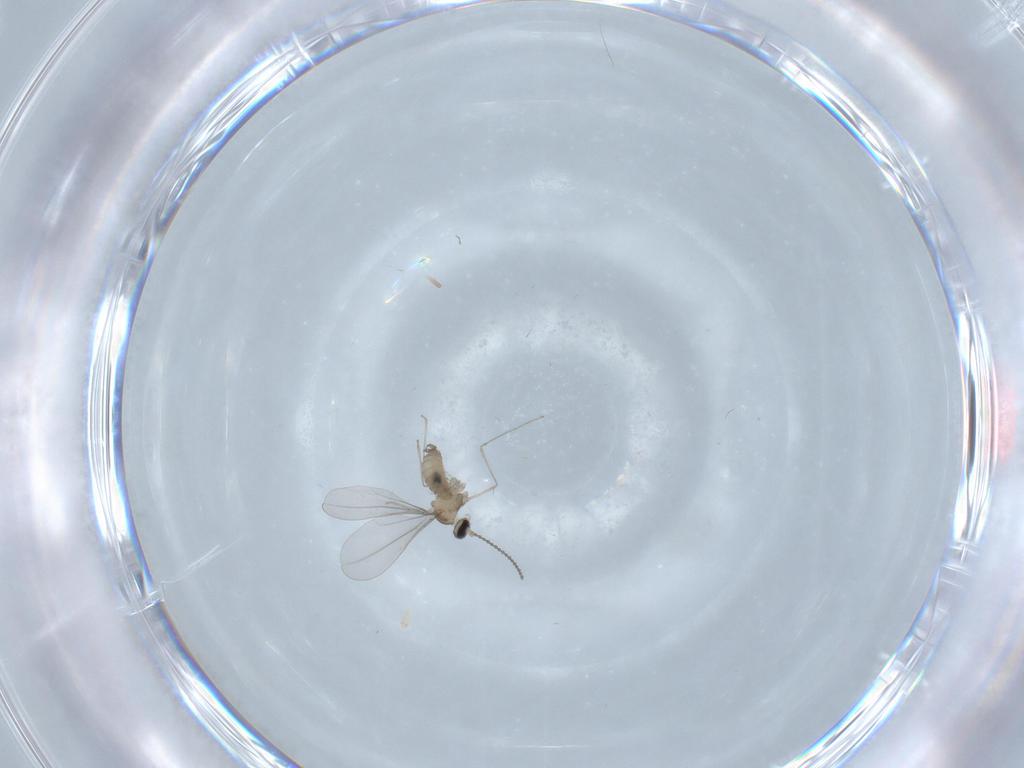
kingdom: Animalia
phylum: Arthropoda
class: Insecta
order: Diptera
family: Cecidomyiidae
